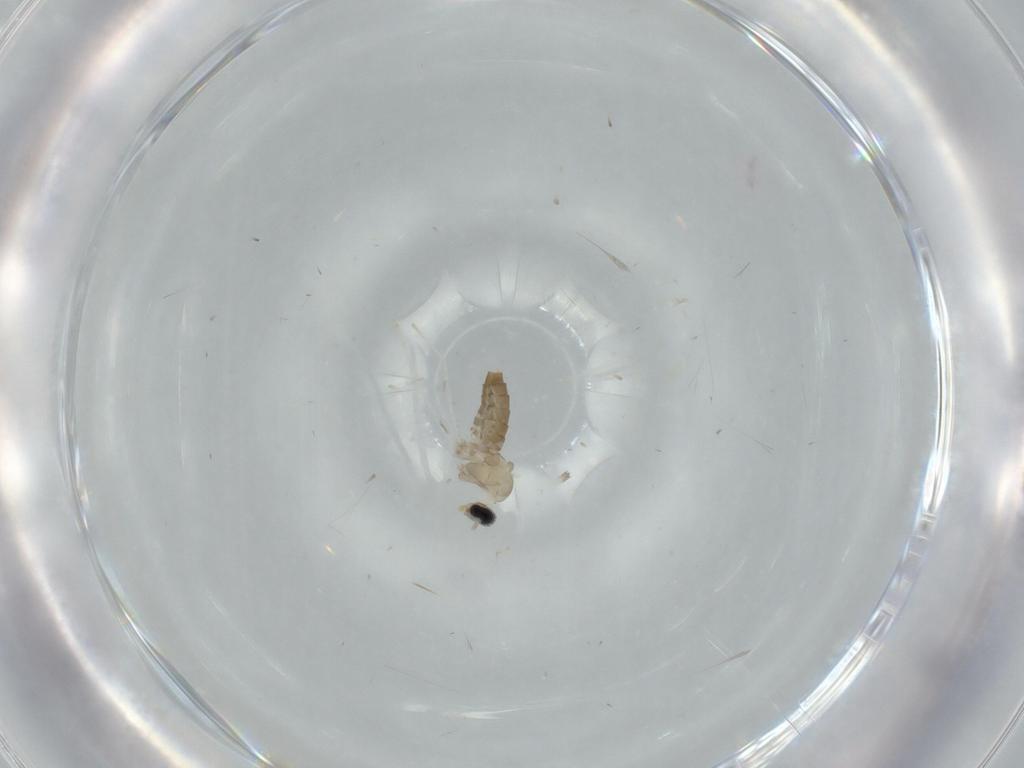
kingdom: Animalia
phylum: Arthropoda
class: Insecta
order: Diptera
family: Cecidomyiidae
